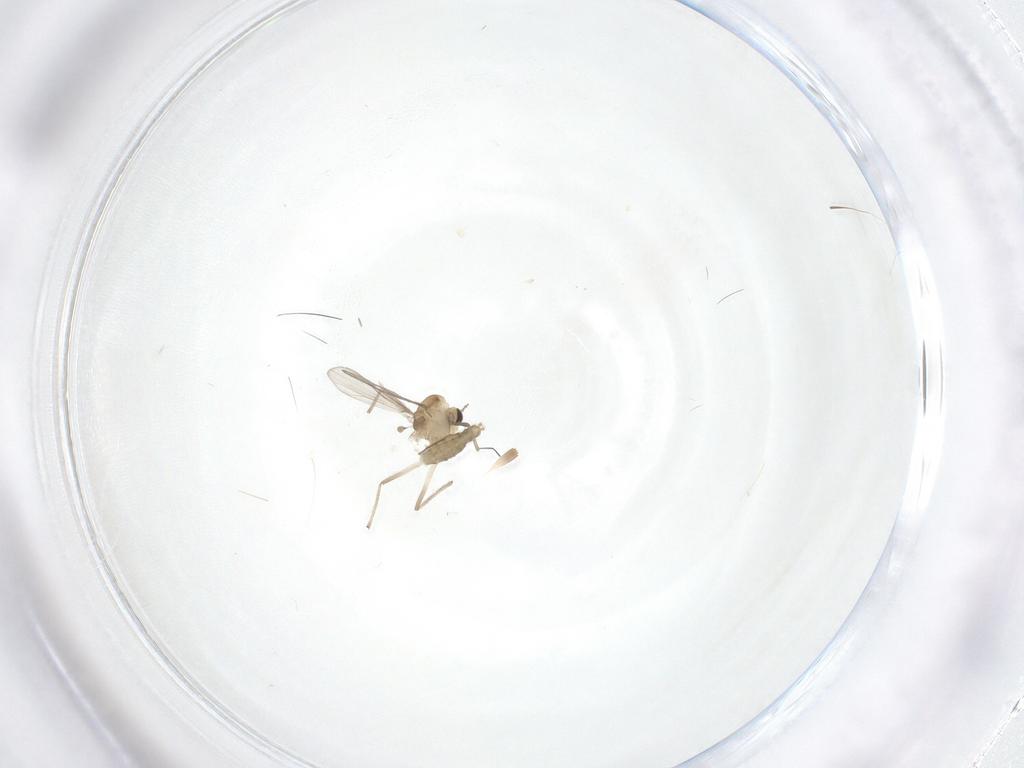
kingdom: Animalia
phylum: Arthropoda
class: Insecta
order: Diptera
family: Chironomidae
